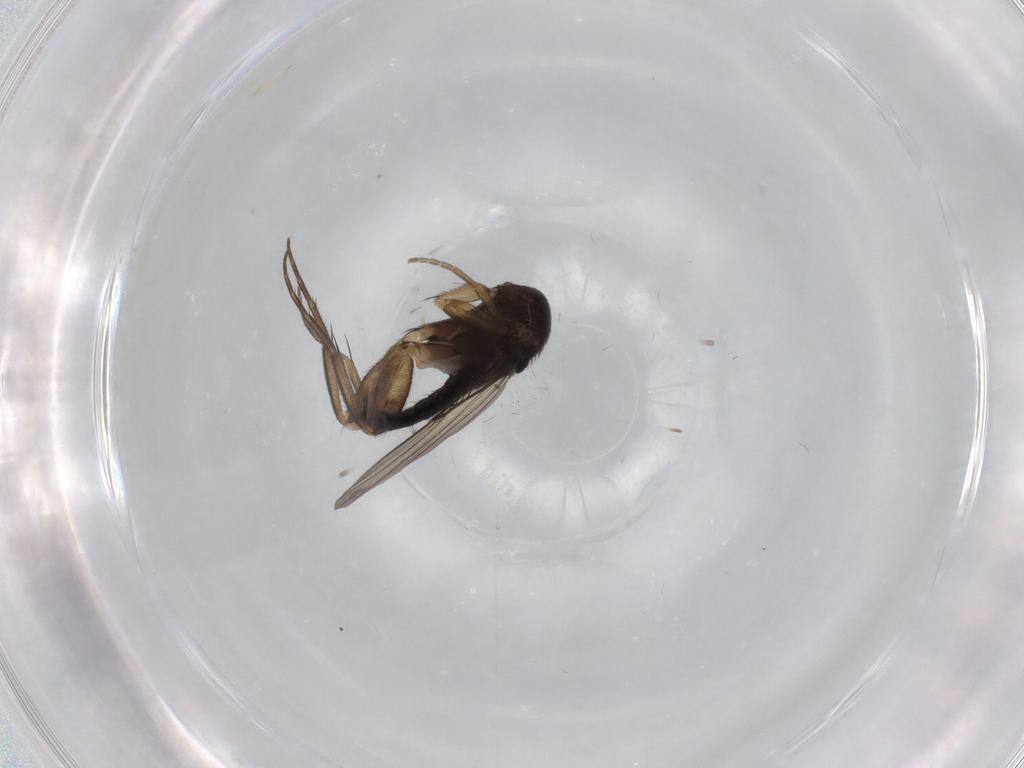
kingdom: Animalia
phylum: Arthropoda
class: Insecta
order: Diptera
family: Phoridae
